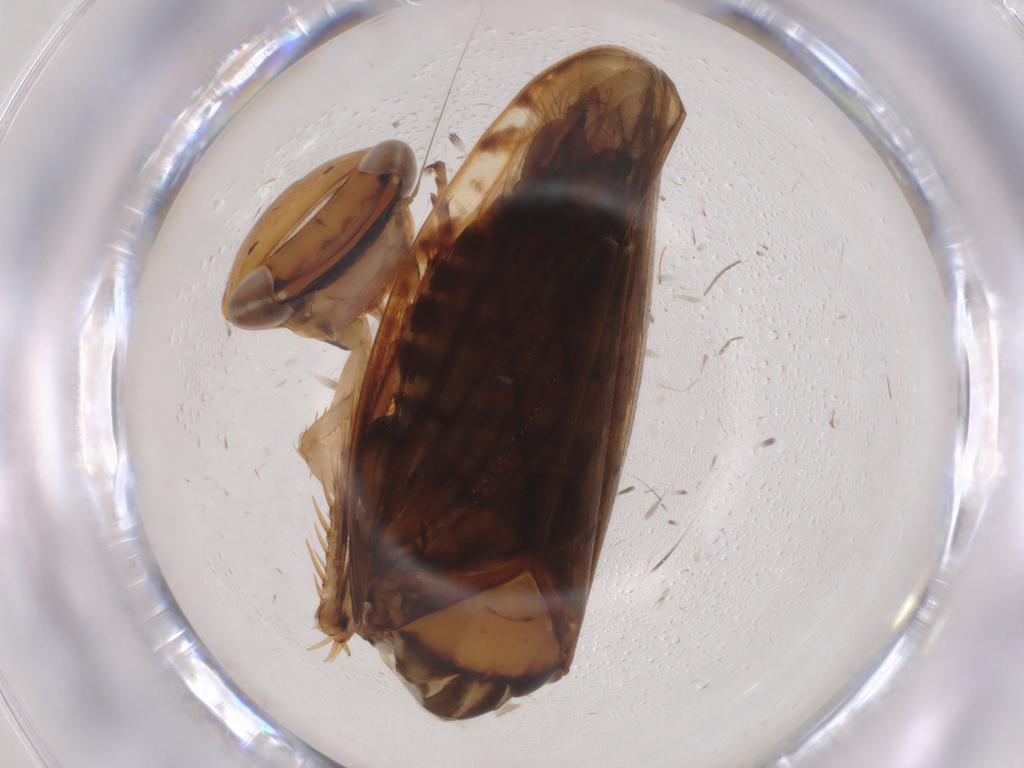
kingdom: Animalia
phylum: Arthropoda
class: Insecta
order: Hemiptera
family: Cicadellidae
